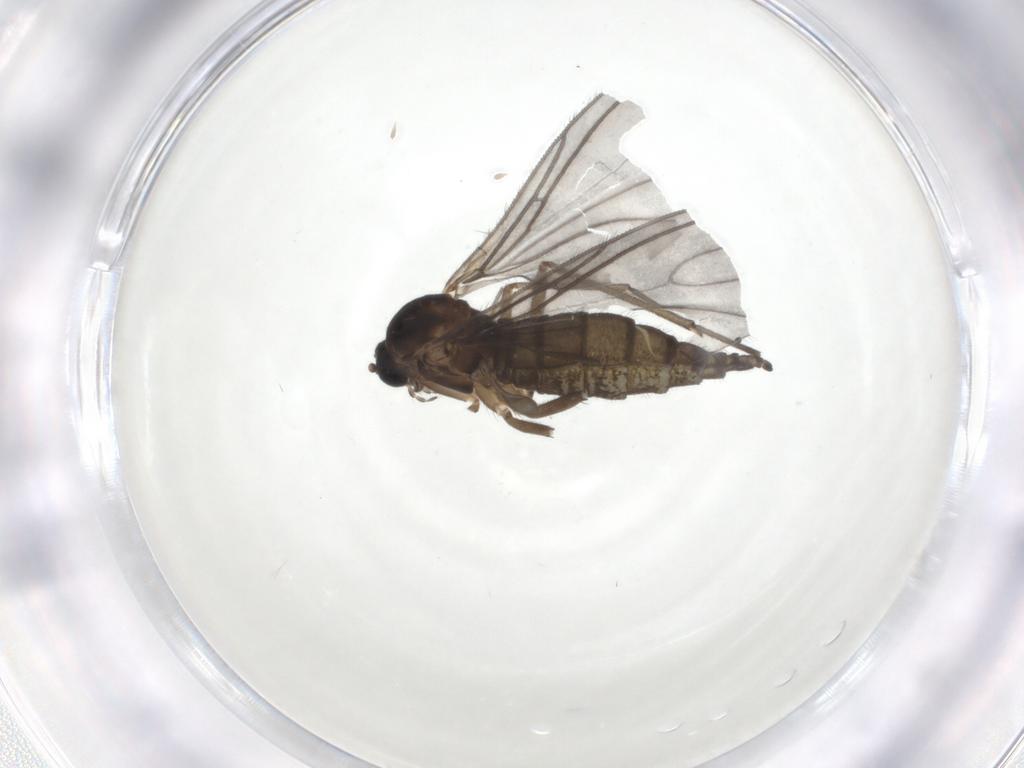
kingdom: Animalia
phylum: Arthropoda
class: Insecta
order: Diptera
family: Sciaridae
